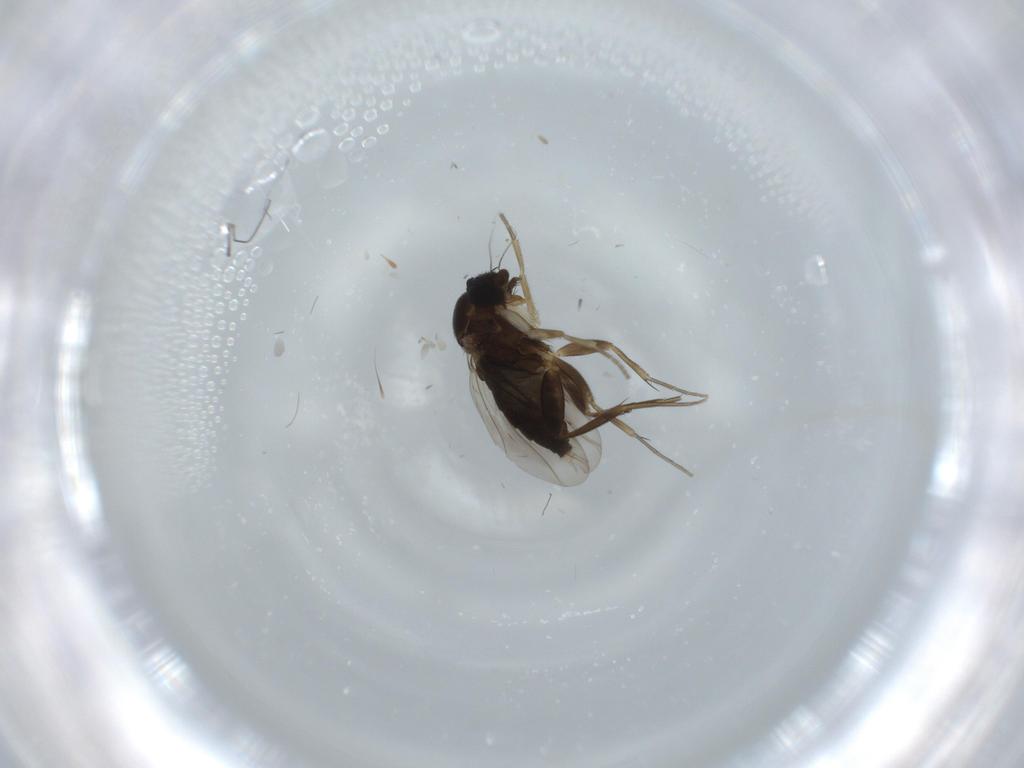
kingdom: Animalia
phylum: Arthropoda
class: Insecta
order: Diptera
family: Phoridae
